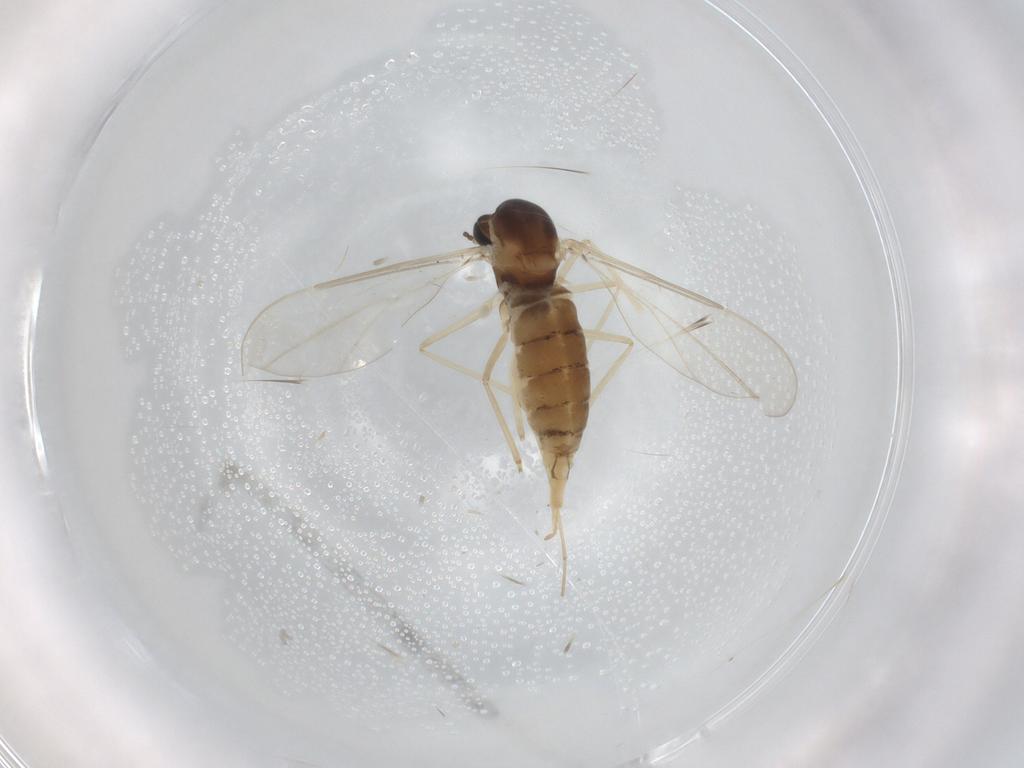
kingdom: Animalia
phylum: Arthropoda
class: Insecta
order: Diptera
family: Cecidomyiidae
